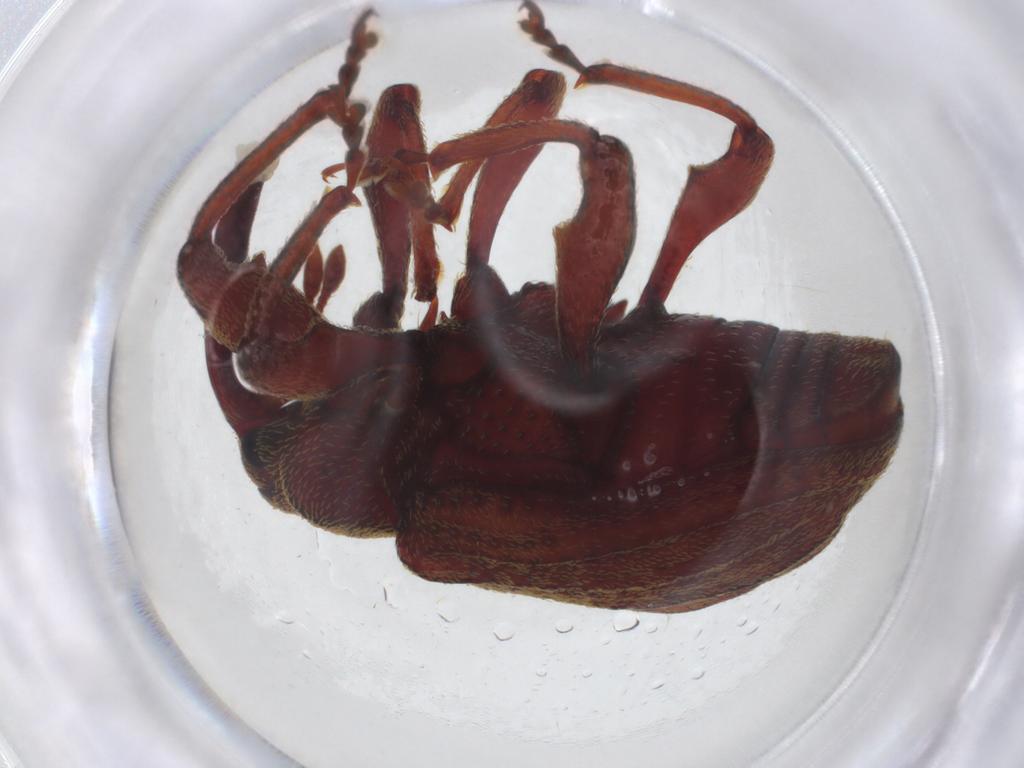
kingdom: Animalia
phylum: Arthropoda
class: Insecta
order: Coleoptera
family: Curculionidae
